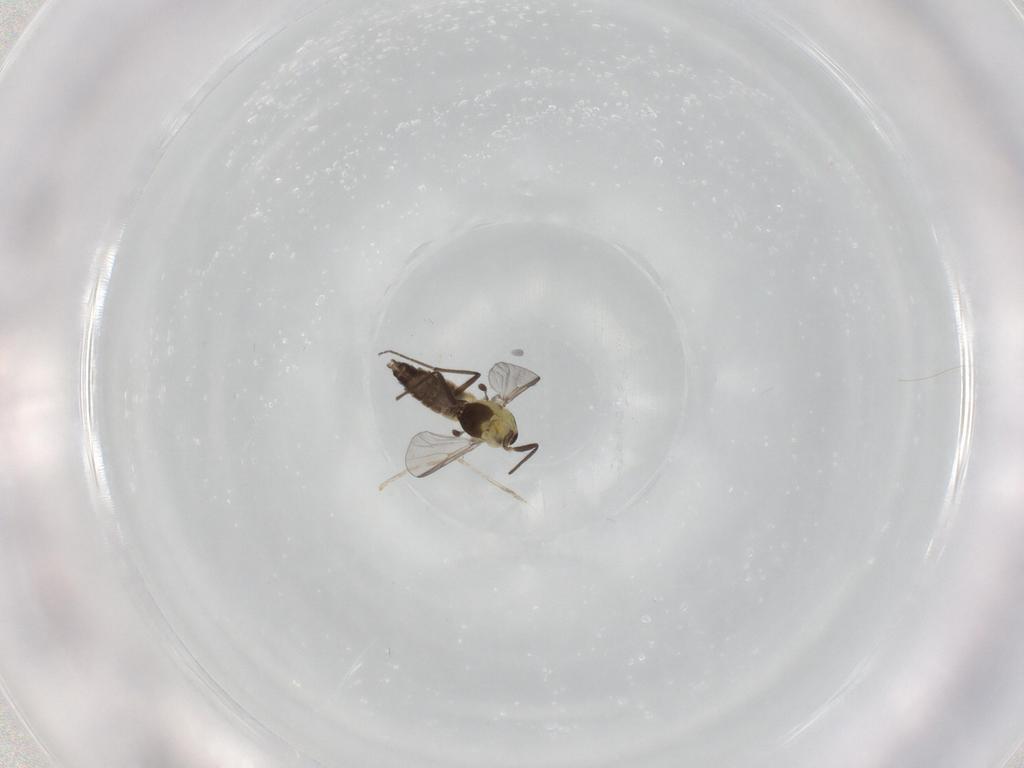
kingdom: Animalia
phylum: Arthropoda
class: Insecta
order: Diptera
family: Chironomidae
